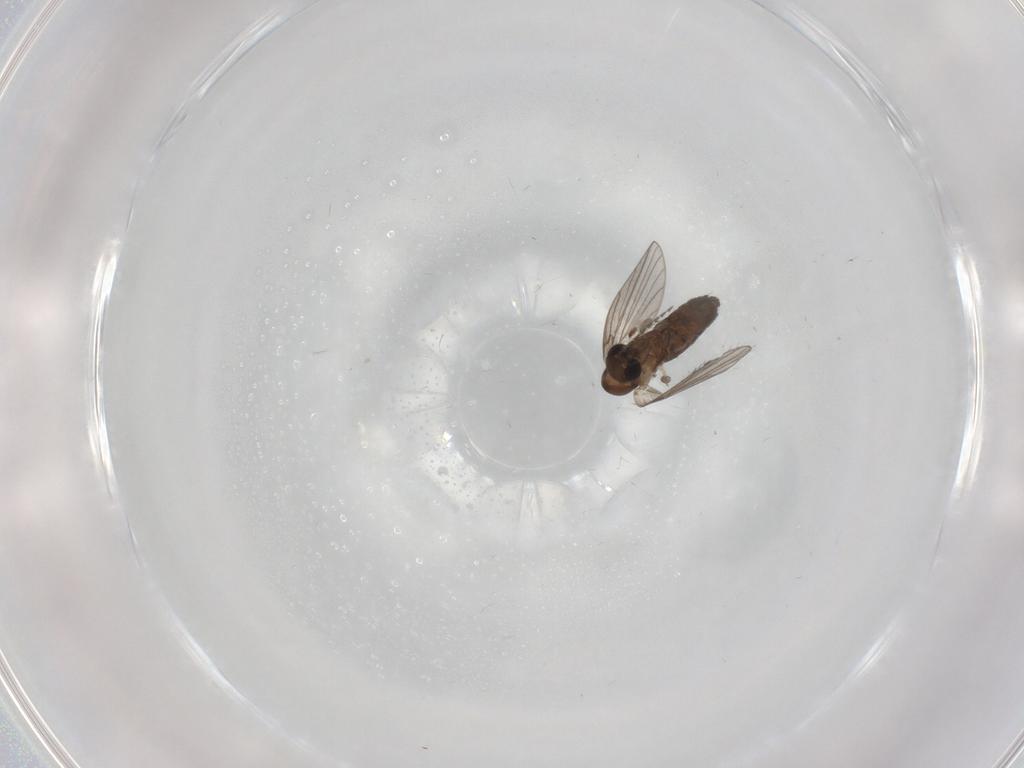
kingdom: Animalia
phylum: Arthropoda
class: Insecta
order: Diptera
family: Psychodidae
